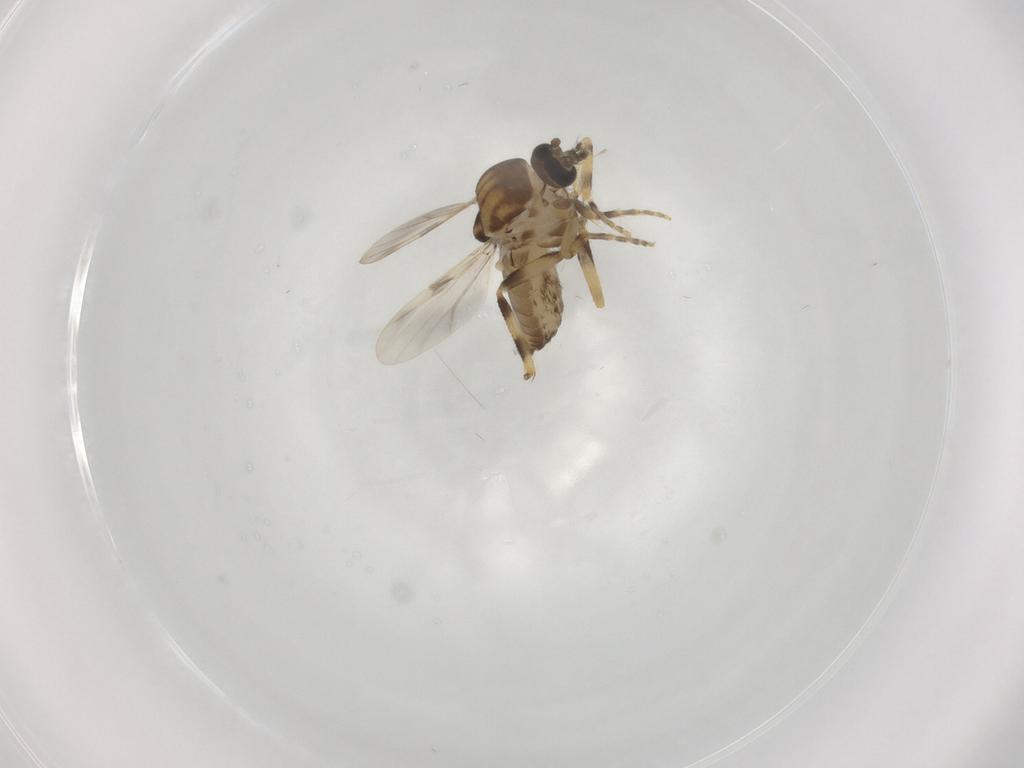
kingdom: Animalia
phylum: Arthropoda
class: Insecta
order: Diptera
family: Ceratopogonidae
